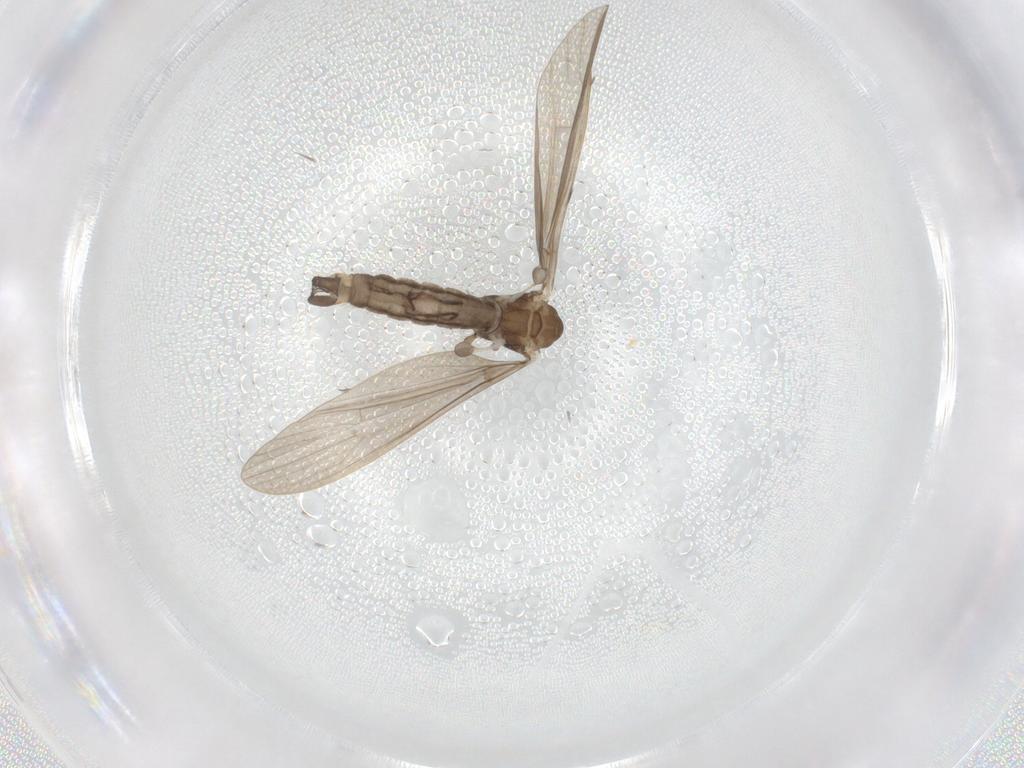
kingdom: Animalia
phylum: Arthropoda
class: Insecta
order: Diptera
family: Limoniidae
